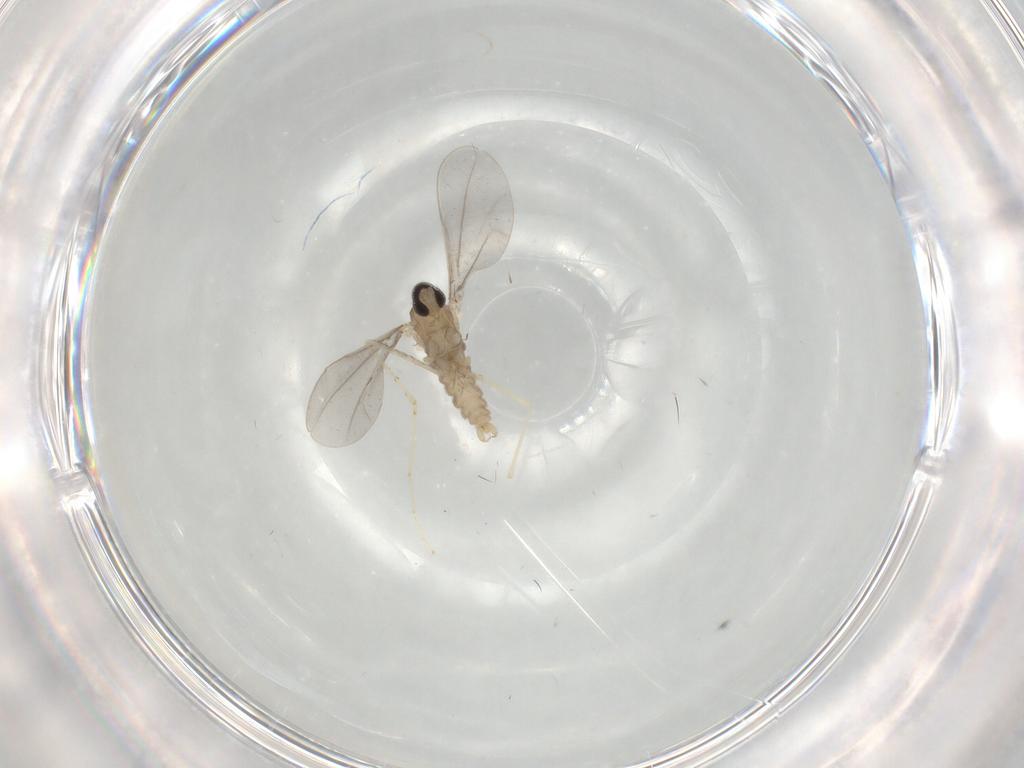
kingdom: Animalia
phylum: Arthropoda
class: Insecta
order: Diptera
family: Cecidomyiidae
